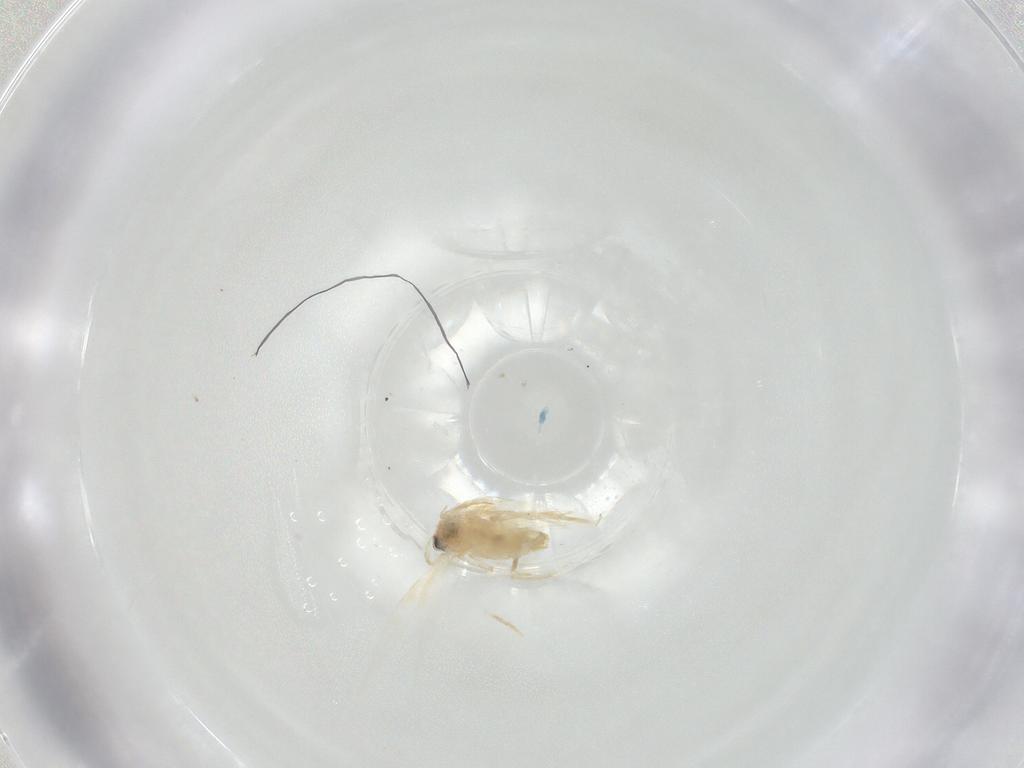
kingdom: Animalia
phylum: Arthropoda
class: Insecta
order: Lepidoptera
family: Nepticulidae
